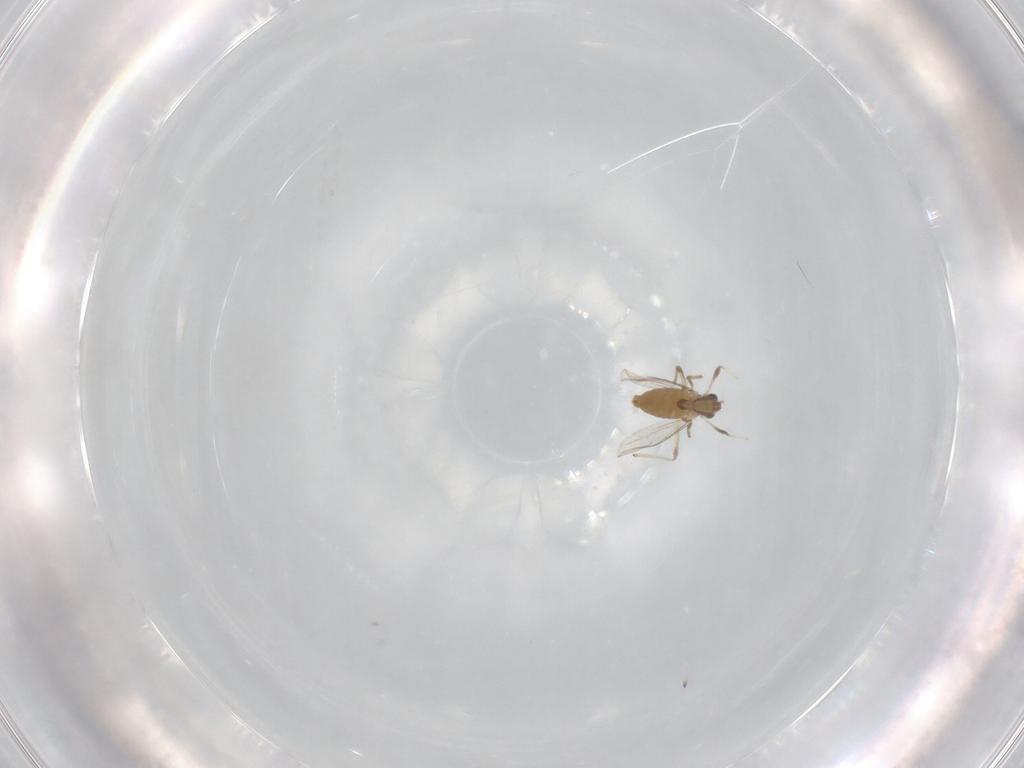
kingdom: Animalia
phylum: Arthropoda
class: Insecta
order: Diptera
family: Chironomidae
